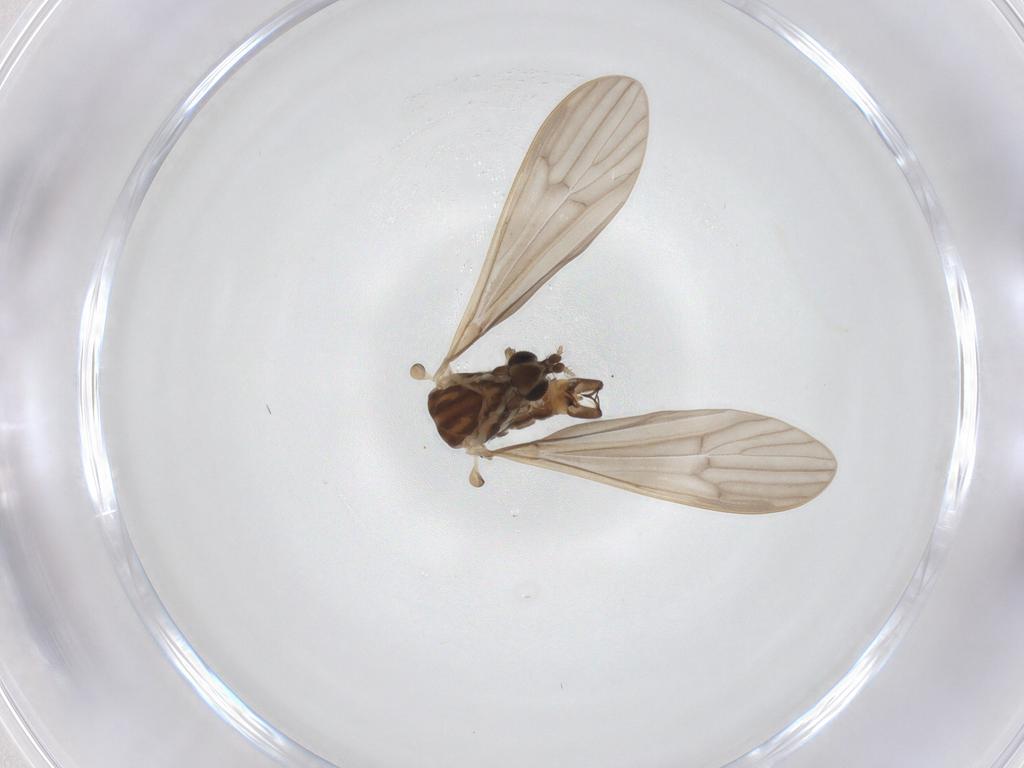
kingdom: Animalia
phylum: Arthropoda
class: Insecta
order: Diptera
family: Limoniidae
